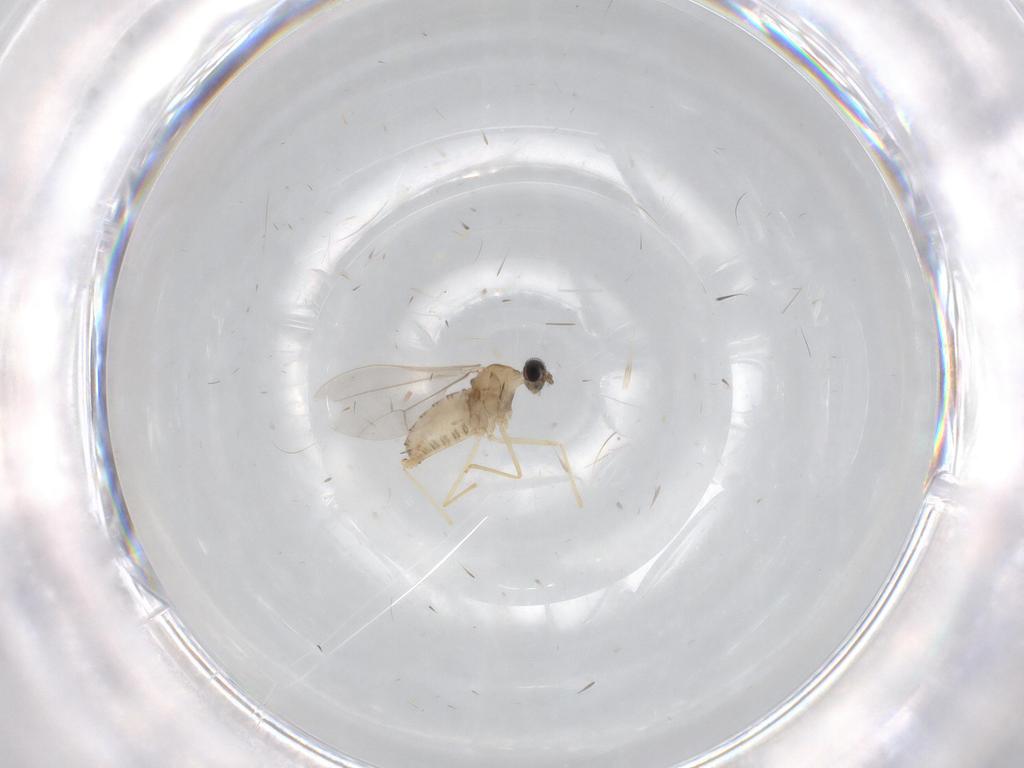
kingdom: Animalia
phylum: Arthropoda
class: Insecta
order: Diptera
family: Cecidomyiidae
